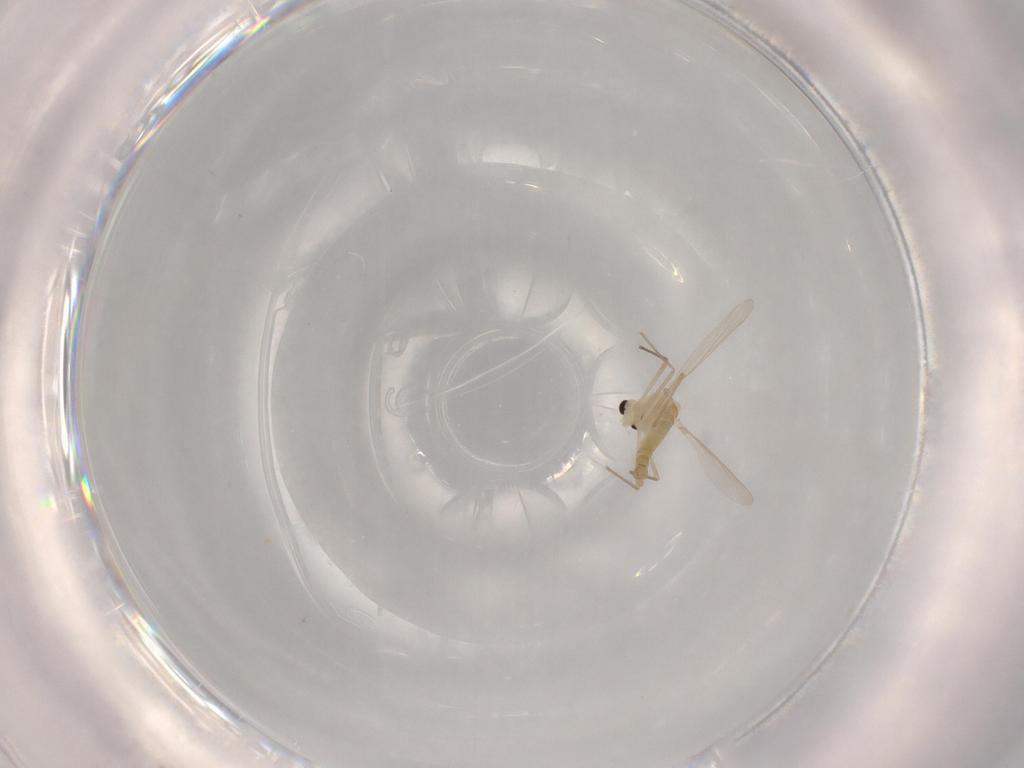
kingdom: Animalia
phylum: Arthropoda
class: Insecta
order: Diptera
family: Chironomidae
